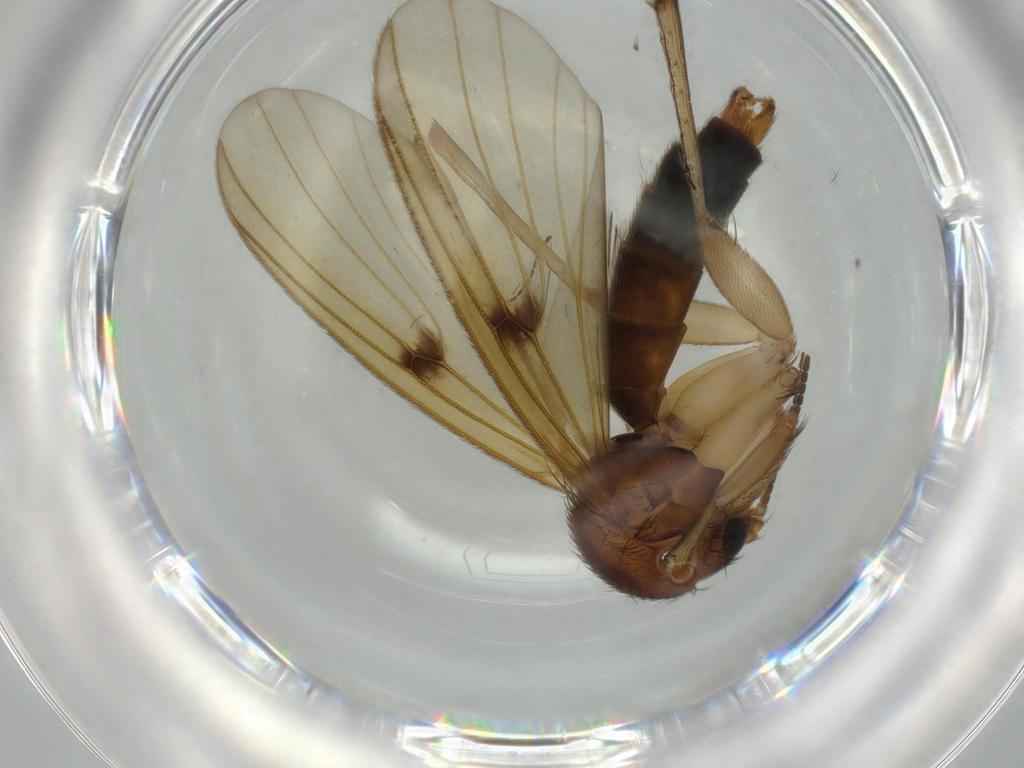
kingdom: Animalia
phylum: Arthropoda
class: Insecta
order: Diptera
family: Cecidomyiidae
